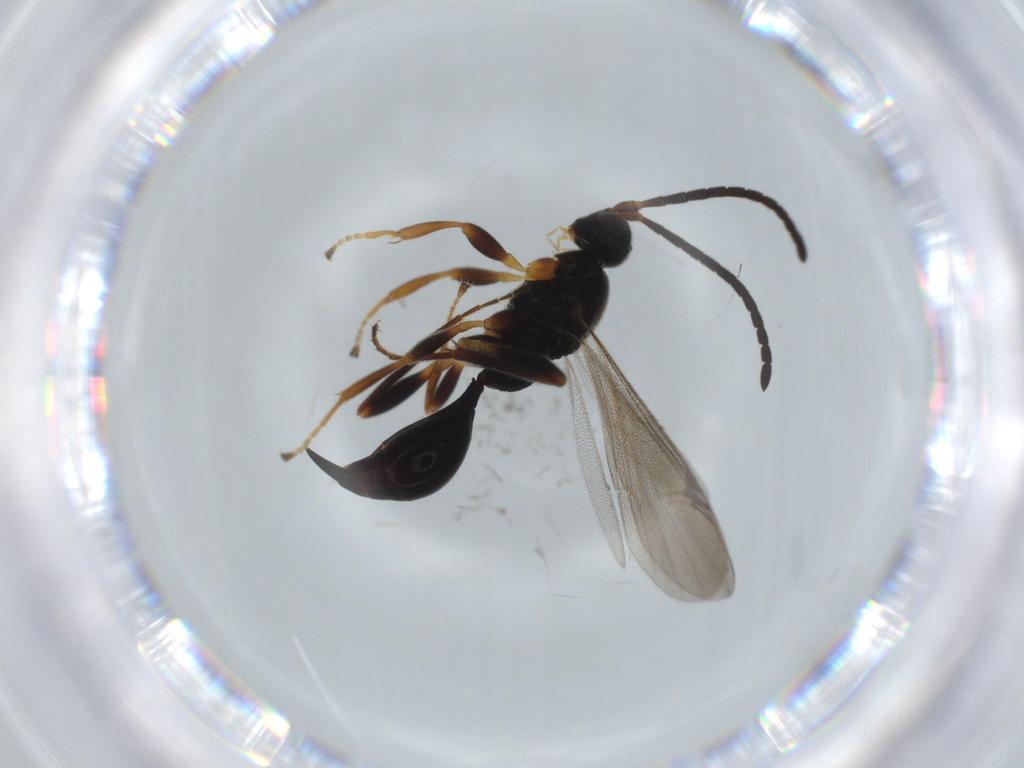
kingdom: Animalia
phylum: Arthropoda
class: Insecta
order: Hymenoptera
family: Proctotrupidae
